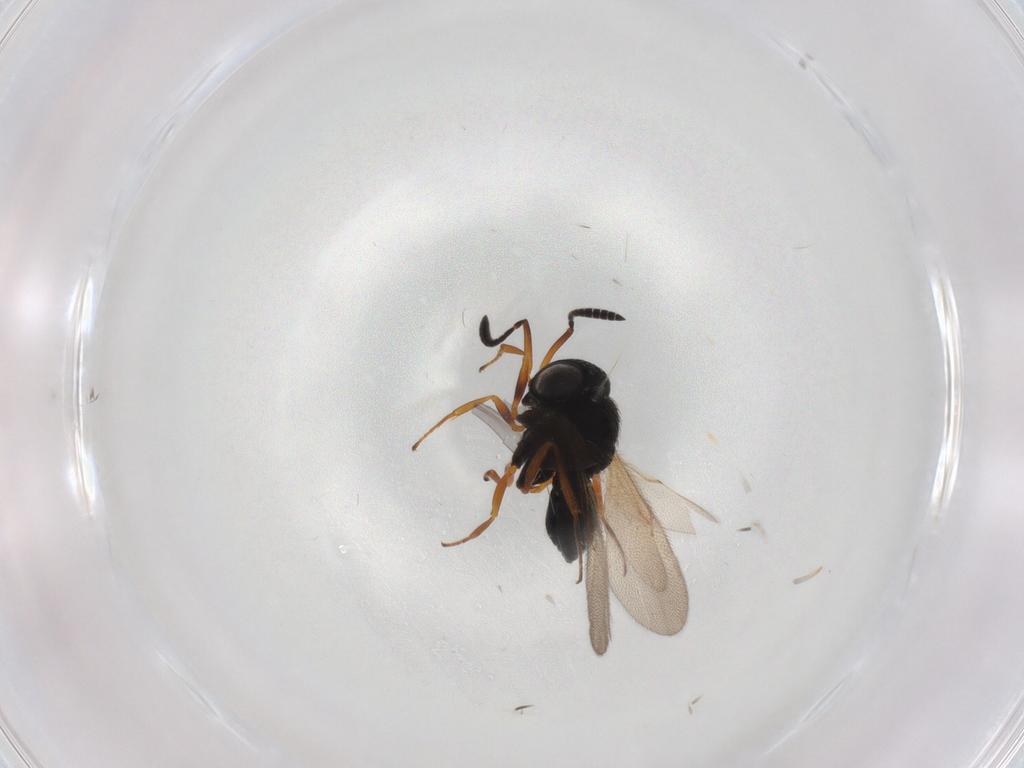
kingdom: Animalia
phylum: Arthropoda
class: Insecta
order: Hymenoptera
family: Scelionidae
